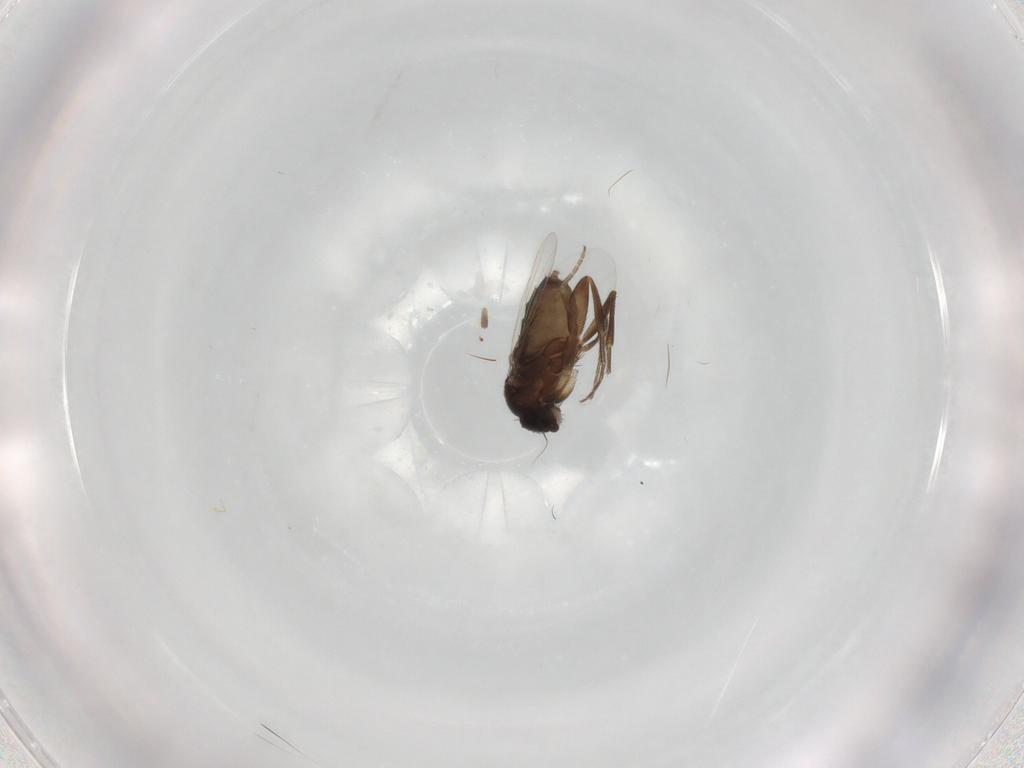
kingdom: Animalia
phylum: Arthropoda
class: Insecta
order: Diptera
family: Phoridae
